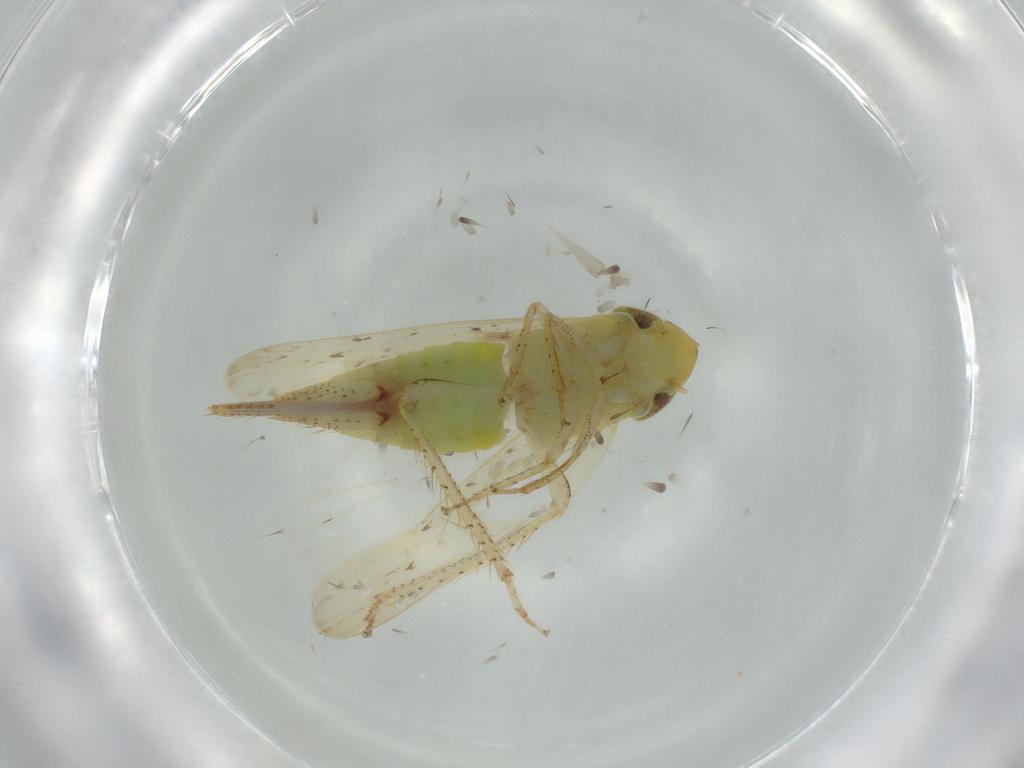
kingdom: Animalia
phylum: Arthropoda
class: Insecta
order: Hemiptera
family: Cicadellidae
